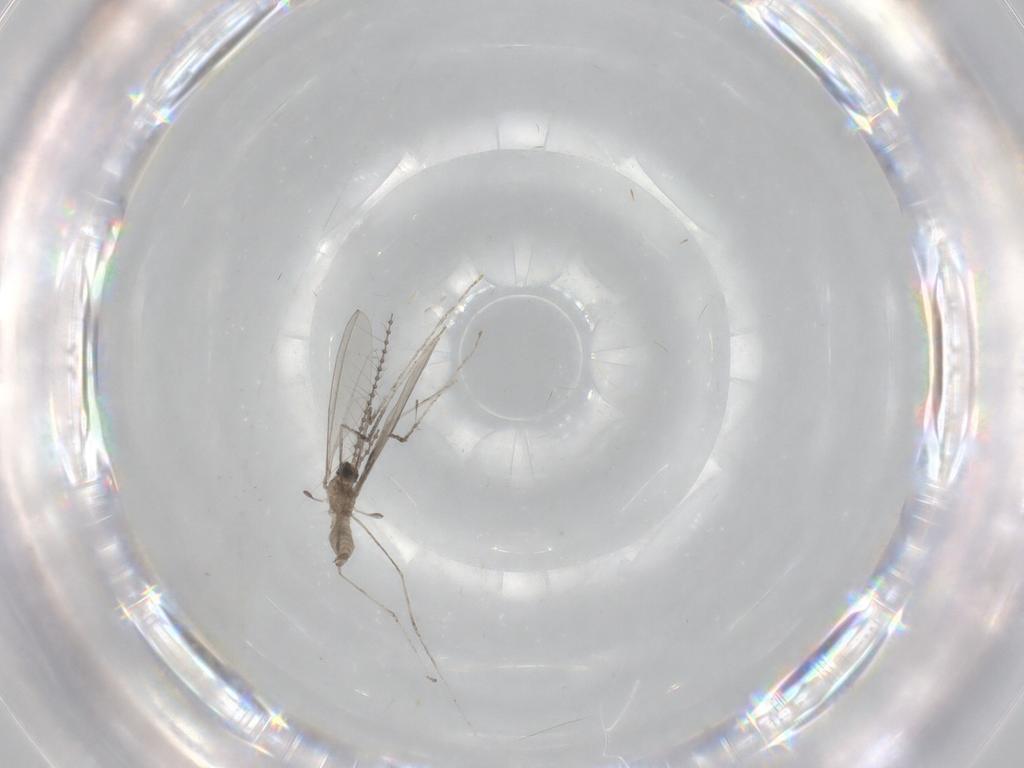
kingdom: Animalia
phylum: Arthropoda
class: Insecta
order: Diptera
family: Cecidomyiidae
